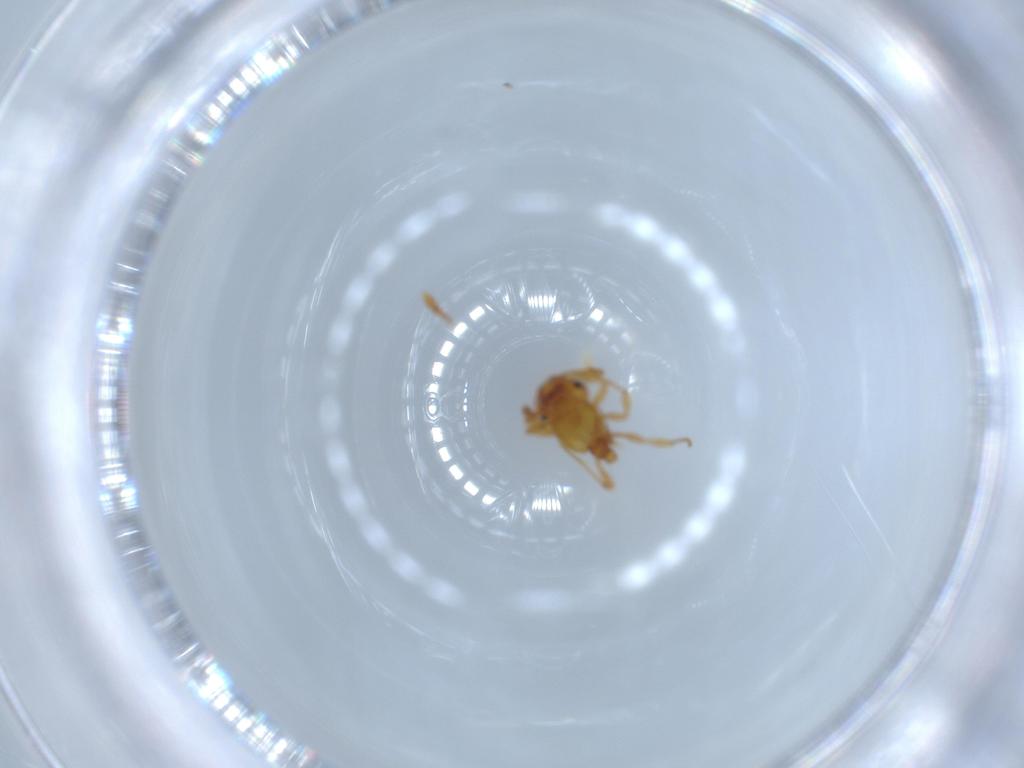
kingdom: Animalia
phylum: Arthropoda
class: Insecta
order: Hymenoptera
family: Formicidae
